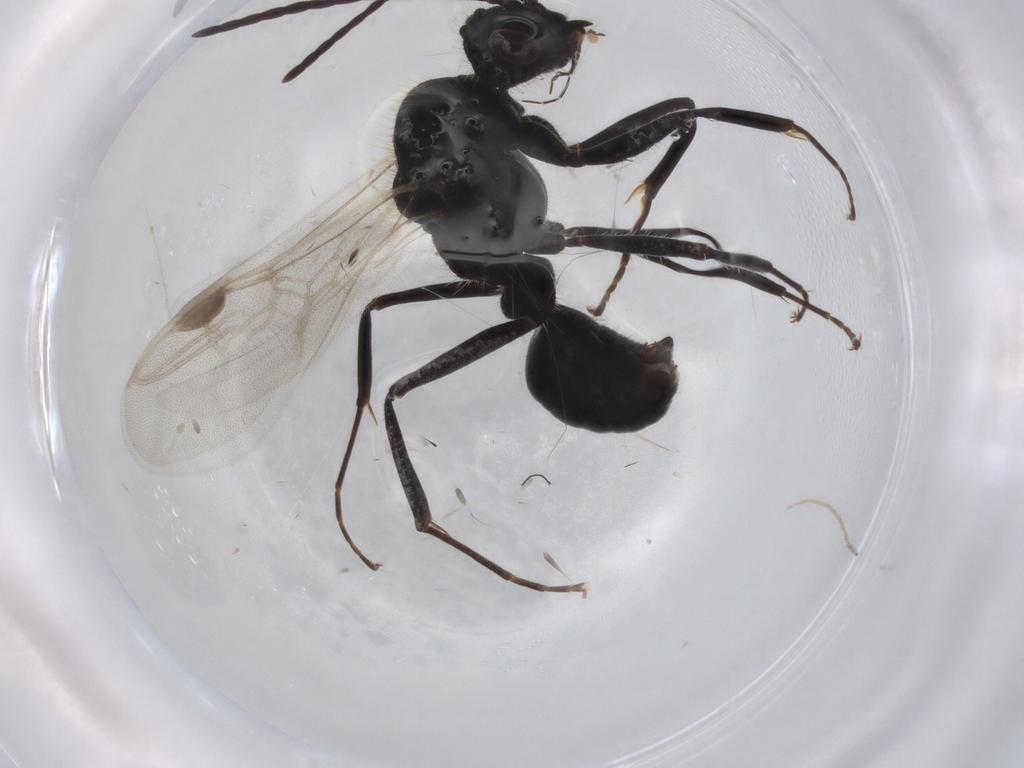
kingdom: Animalia
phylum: Arthropoda
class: Insecta
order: Hymenoptera
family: Formicidae
